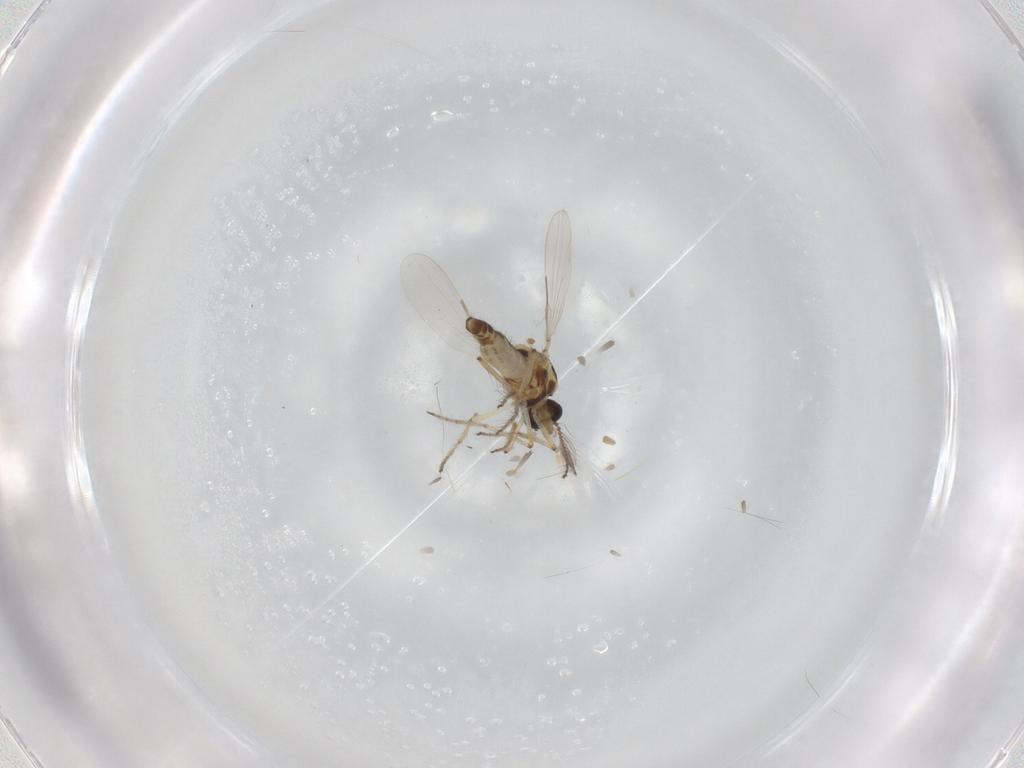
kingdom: Animalia
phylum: Arthropoda
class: Insecta
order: Diptera
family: Ceratopogonidae
